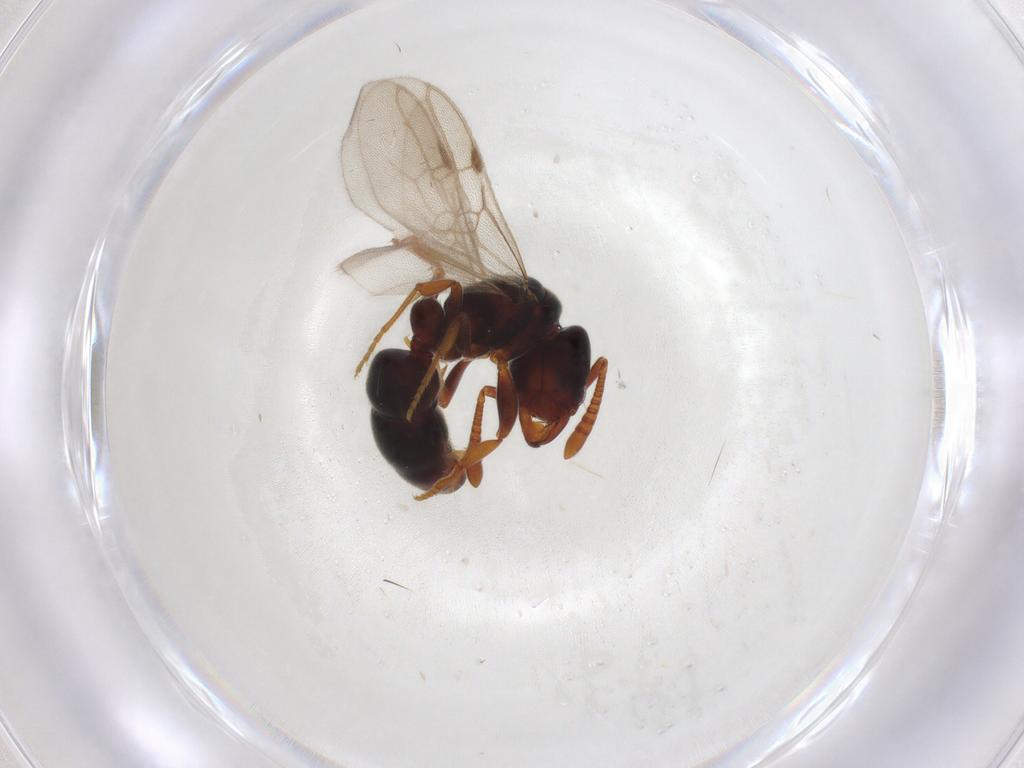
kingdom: Animalia
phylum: Arthropoda
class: Insecta
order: Hymenoptera
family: Formicidae
